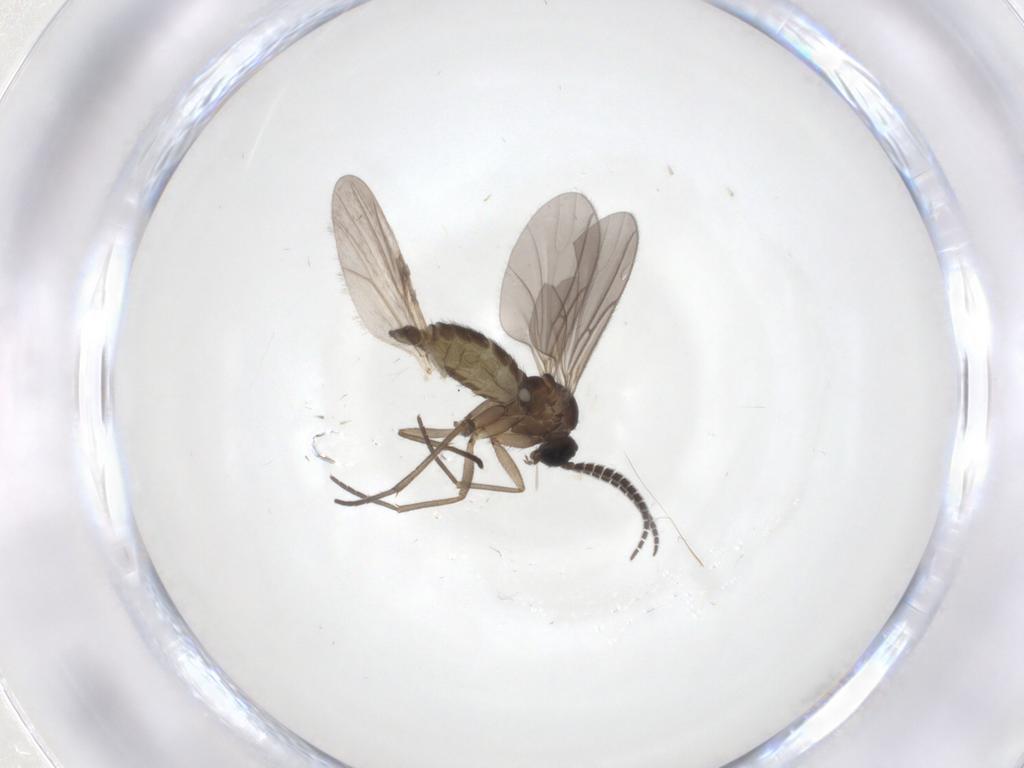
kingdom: Animalia
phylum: Arthropoda
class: Insecta
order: Diptera
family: Sciaridae
